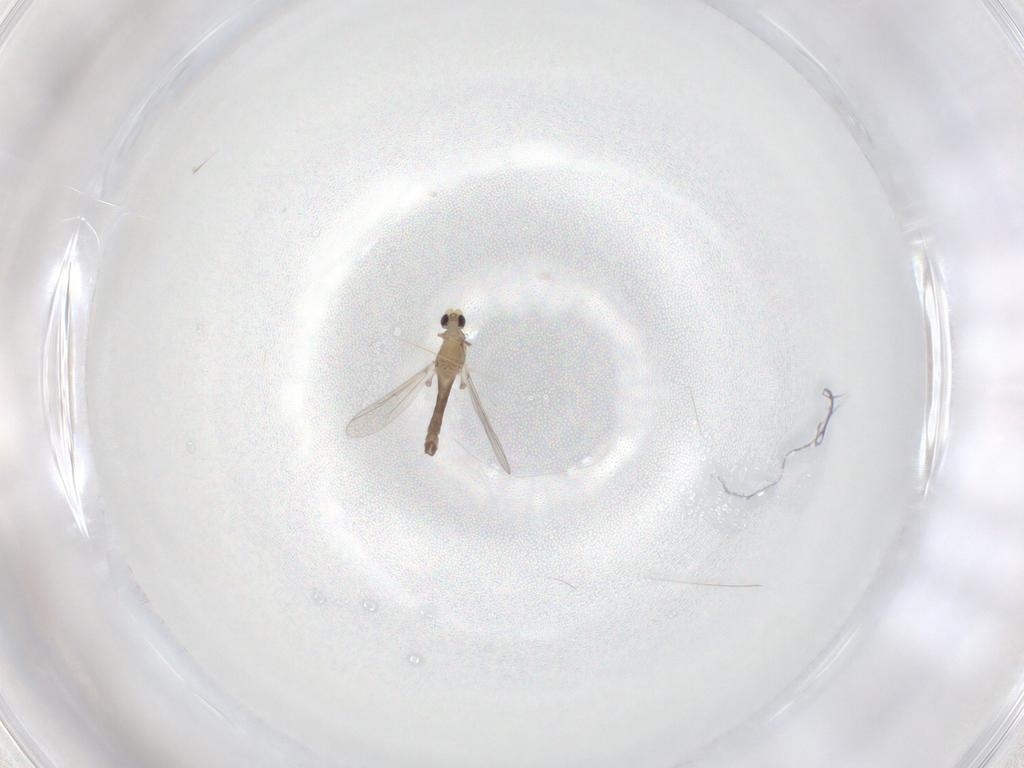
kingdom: Animalia
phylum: Arthropoda
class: Insecta
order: Diptera
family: Chironomidae
